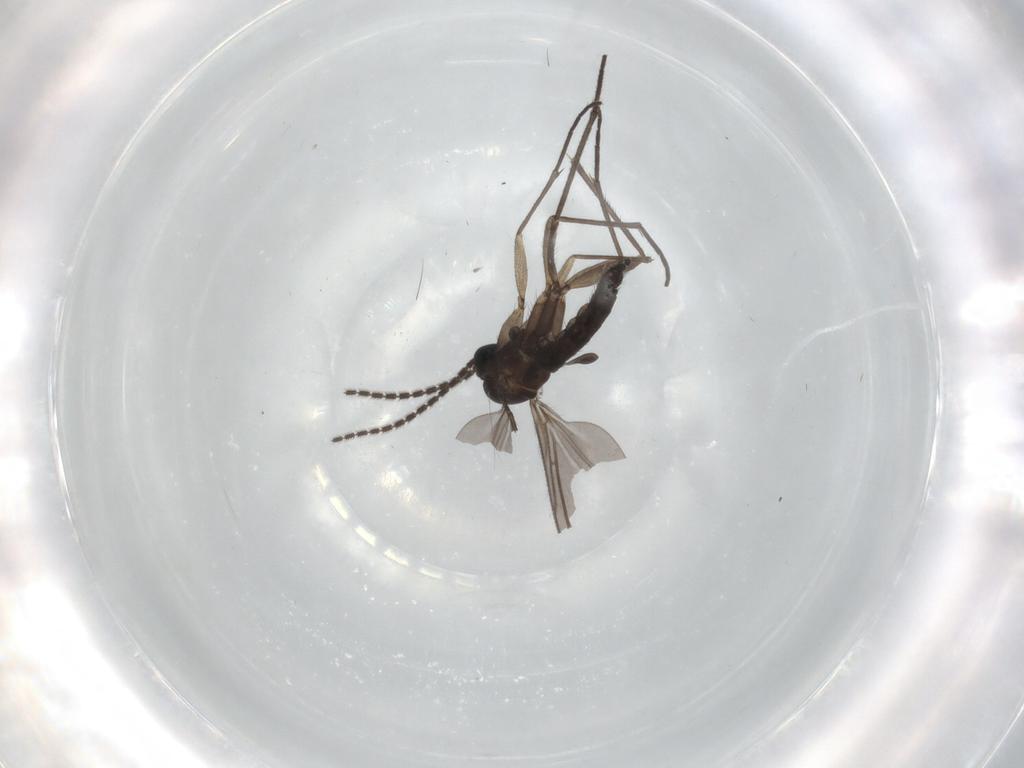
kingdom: Animalia
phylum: Arthropoda
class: Insecta
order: Diptera
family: Sciaridae
